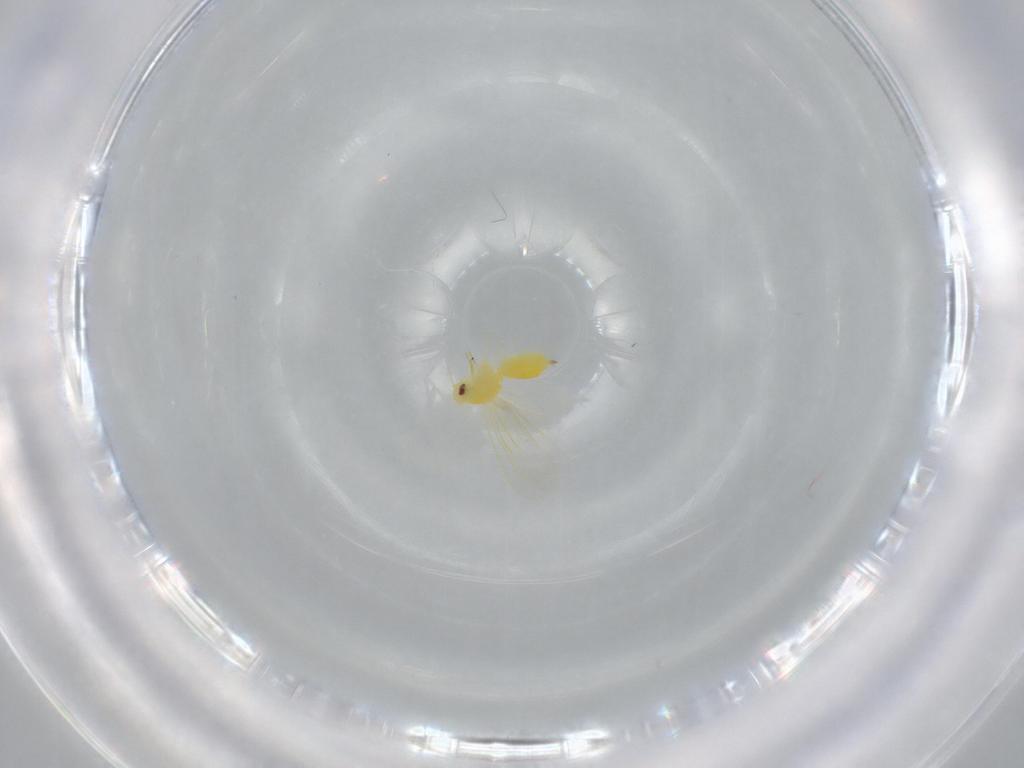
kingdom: Animalia
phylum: Arthropoda
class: Insecta
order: Hemiptera
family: Aleyrodidae
